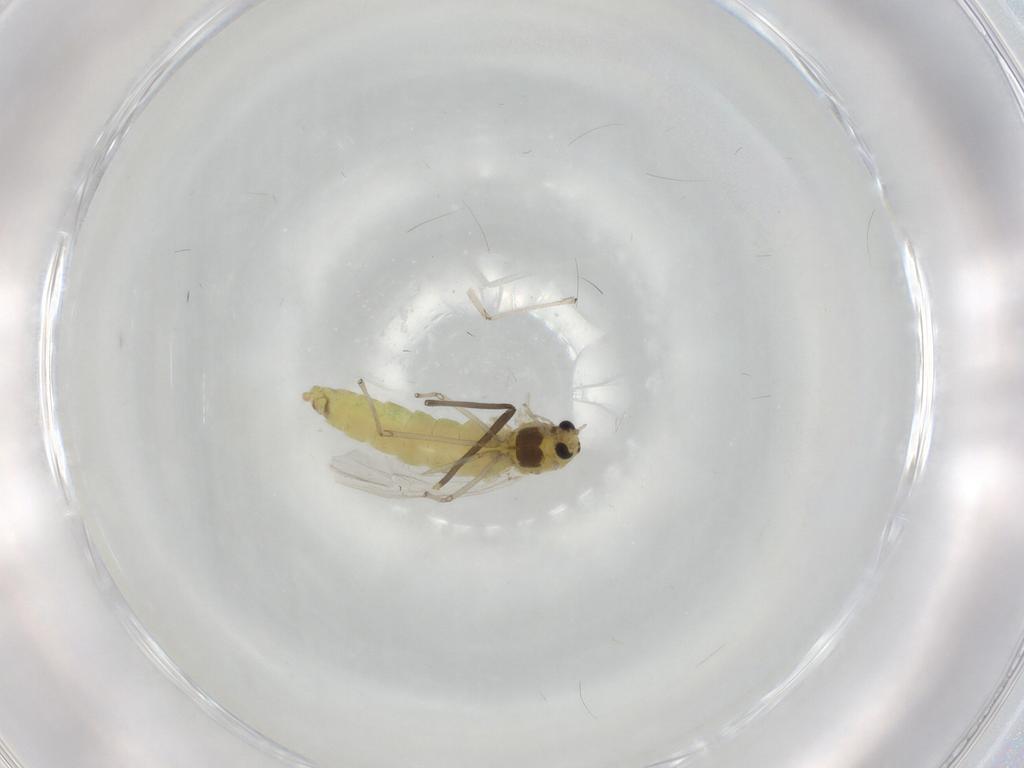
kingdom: Animalia
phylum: Arthropoda
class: Insecta
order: Diptera
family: Chironomidae
